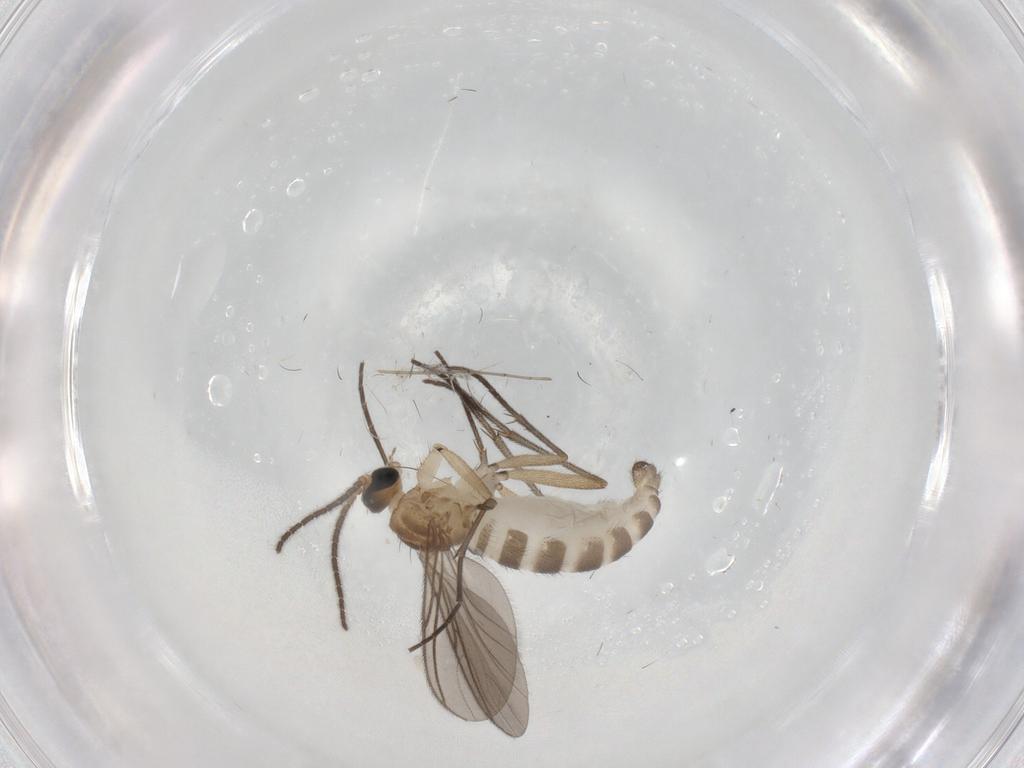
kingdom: Animalia
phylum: Arthropoda
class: Insecta
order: Diptera
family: Sciaridae
